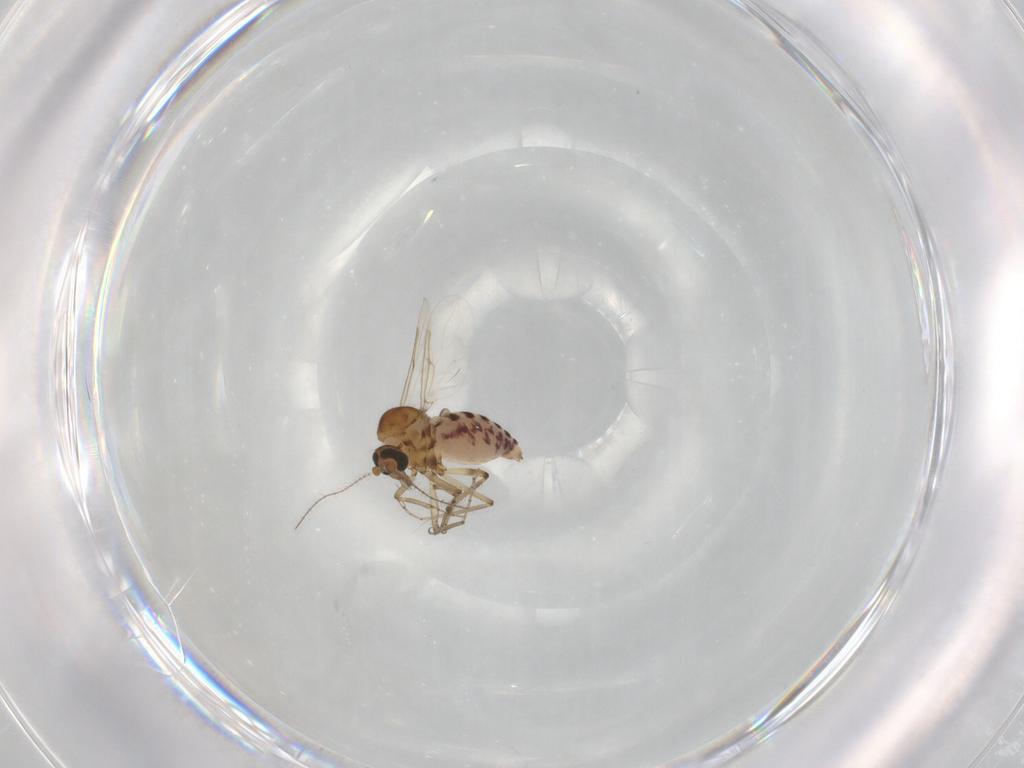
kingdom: Animalia
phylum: Arthropoda
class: Insecta
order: Diptera
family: Ceratopogonidae
